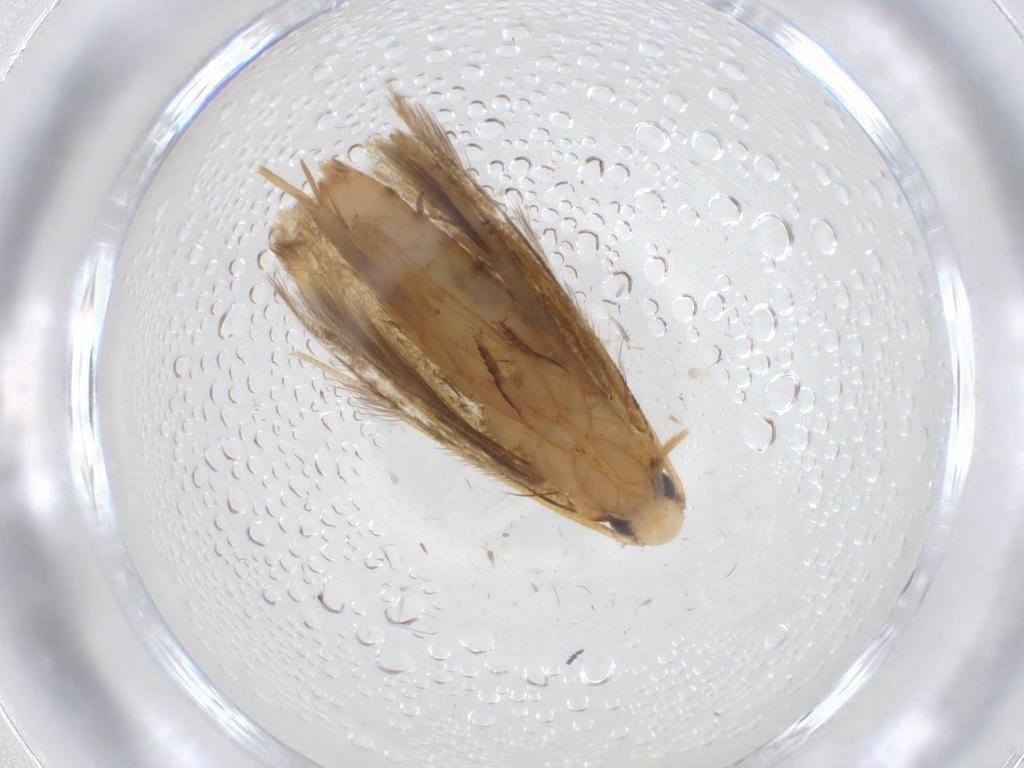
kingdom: Animalia
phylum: Arthropoda
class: Insecta
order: Lepidoptera
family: Tineidae
